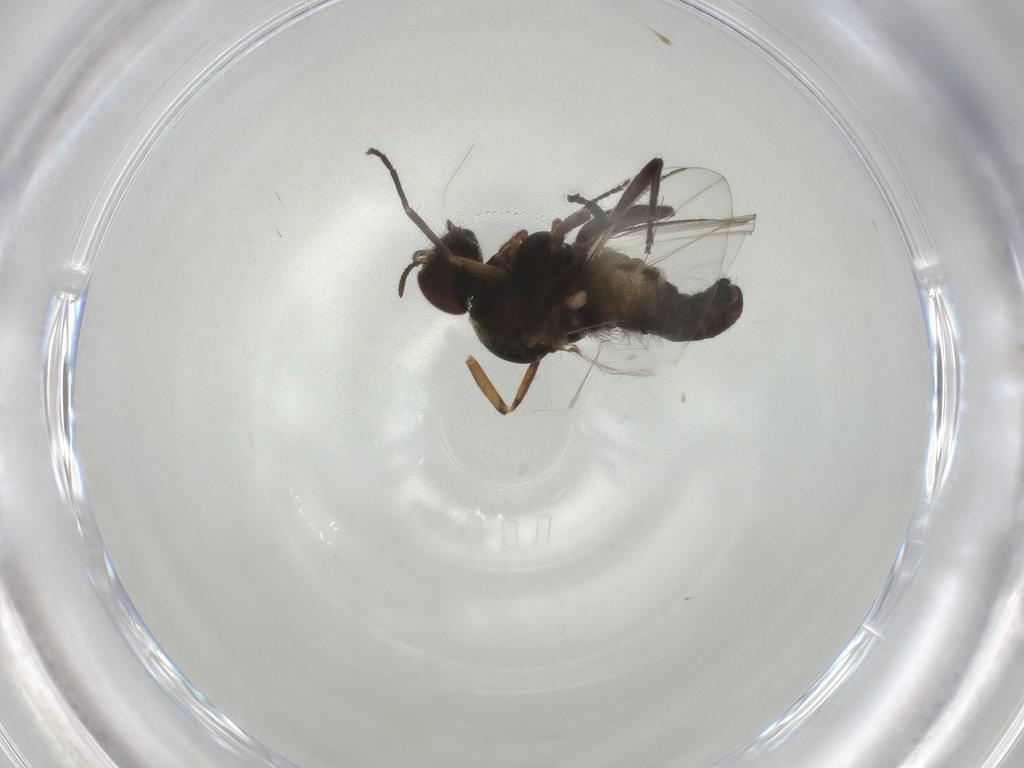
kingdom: Animalia
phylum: Arthropoda
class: Insecta
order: Diptera
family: Chironomidae
